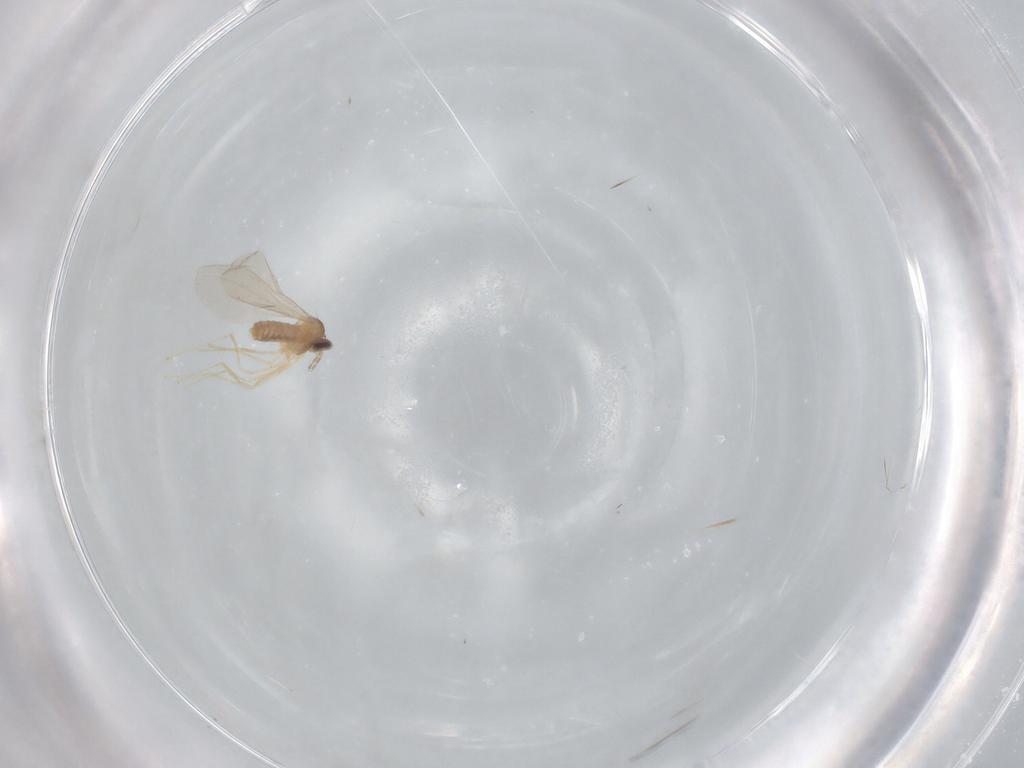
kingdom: Animalia
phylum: Arthropoda
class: Insecta
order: Diptera
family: Cecidomyiidae
